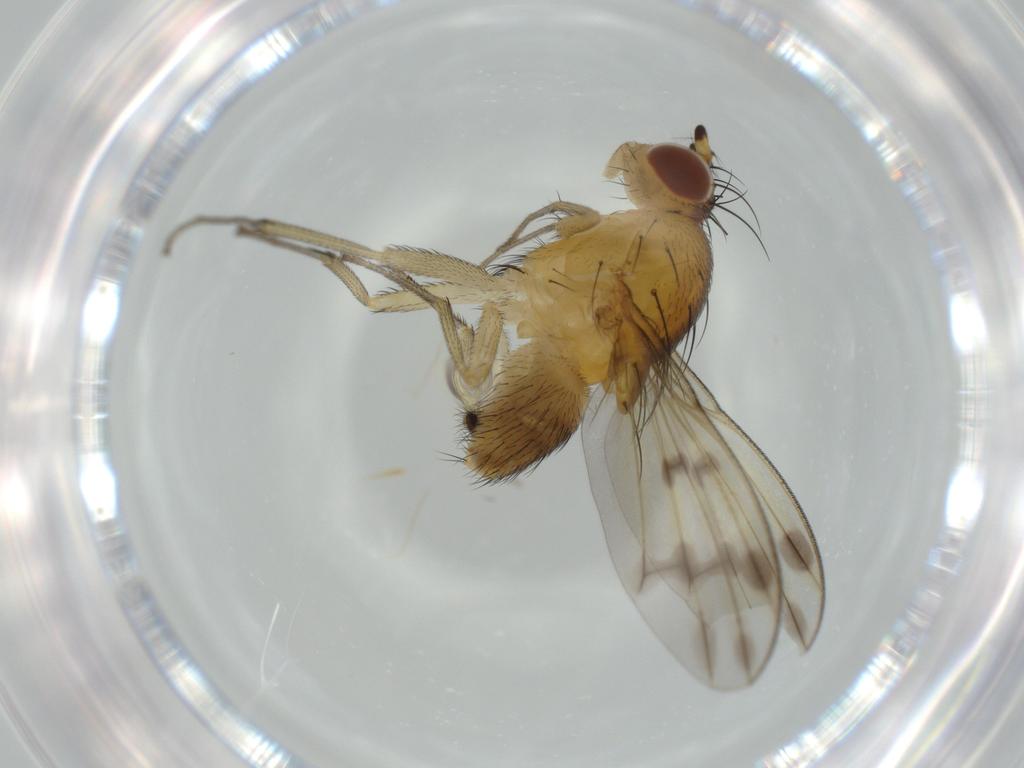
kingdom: Animalia
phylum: Arthropoda
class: Insecta
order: Diptera
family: Lauxaniidae
